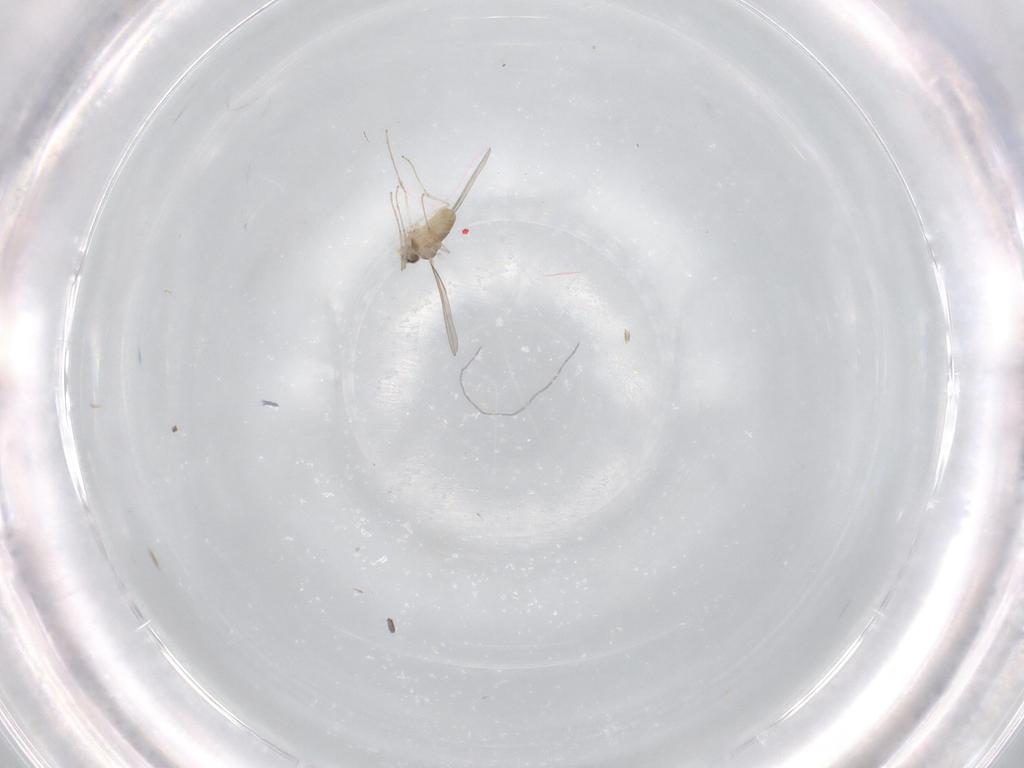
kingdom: Animalia
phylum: Arthropoda
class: Insecta
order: Diptera
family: Cecidomyiidae
